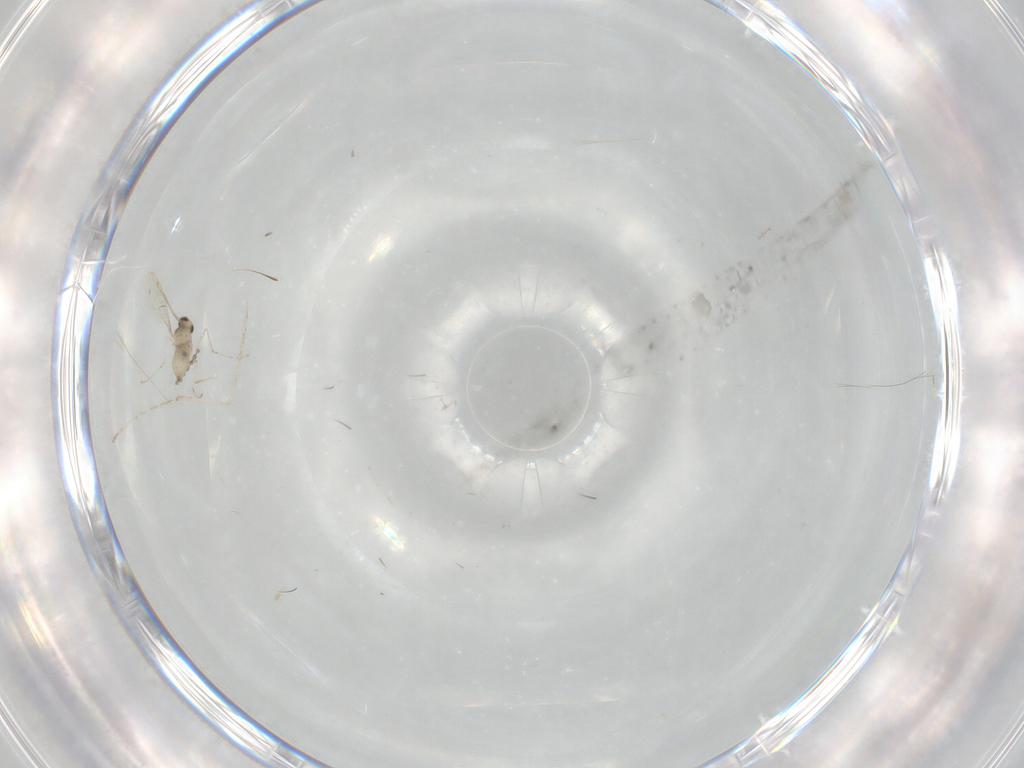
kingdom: Animalia
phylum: Arthropoda
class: Insecta
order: Diptera
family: Cecidomyiidae
